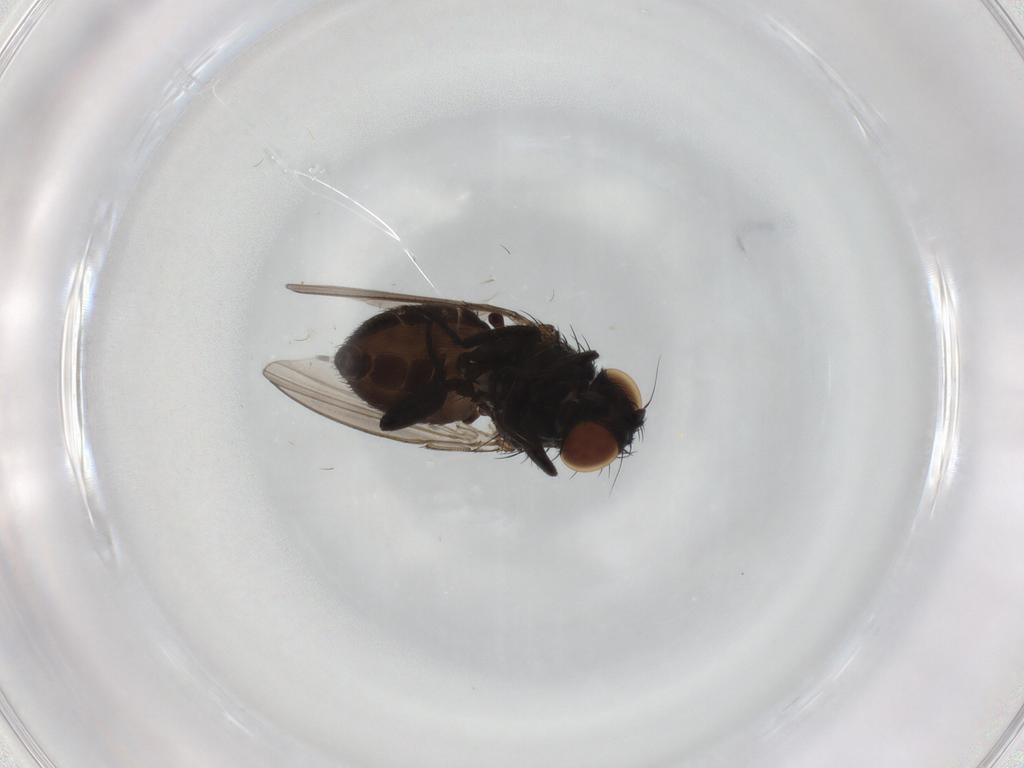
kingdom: Animalia
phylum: Arthropoda
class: Insecta
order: Diptera
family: Milichiidae
